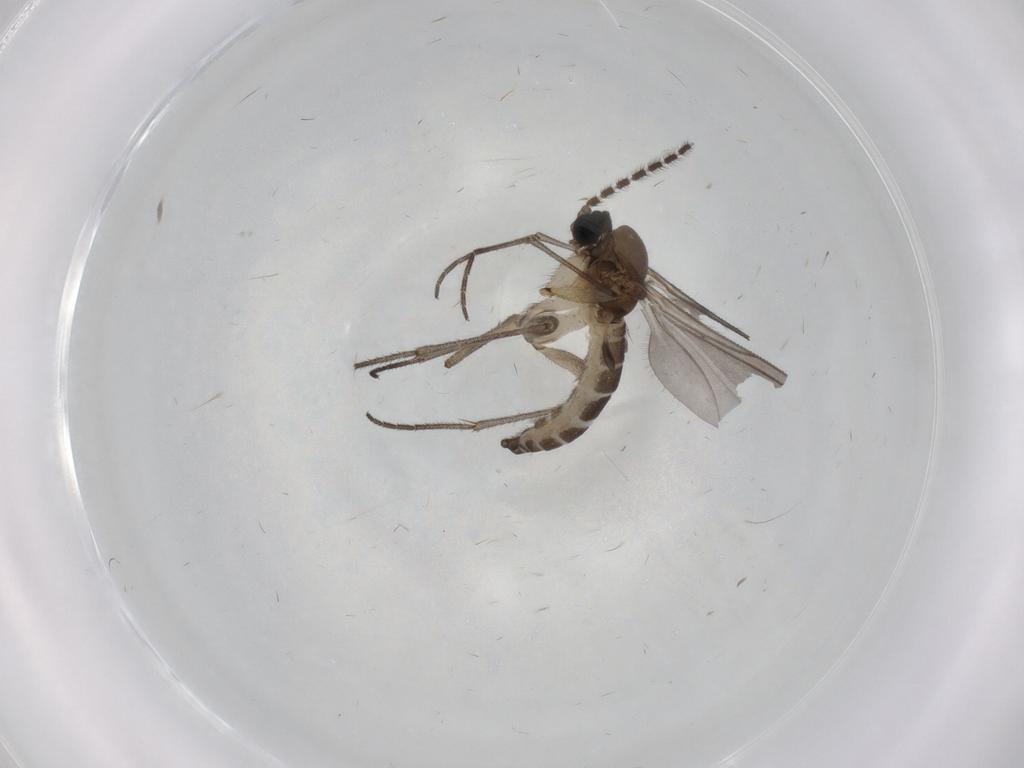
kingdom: Animalia
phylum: Arthropoda
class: Insecta
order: Diptera
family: Sciaridae
